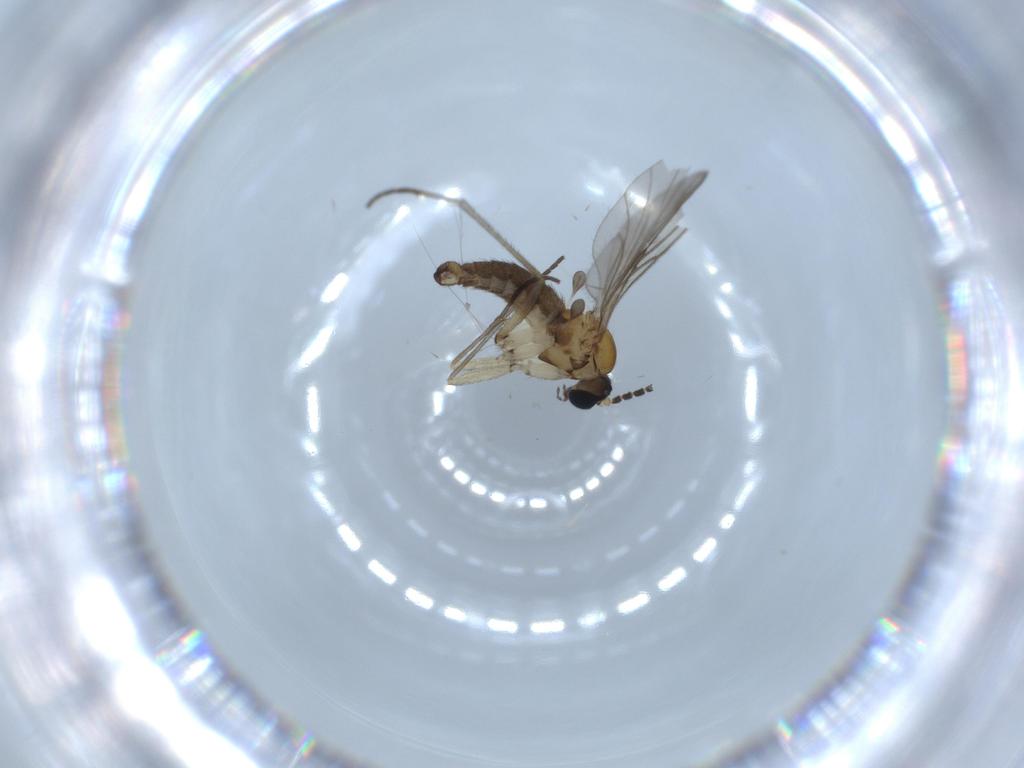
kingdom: Animalia
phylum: Arthropoda
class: Insecta
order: Diptera
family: Sciaridae
